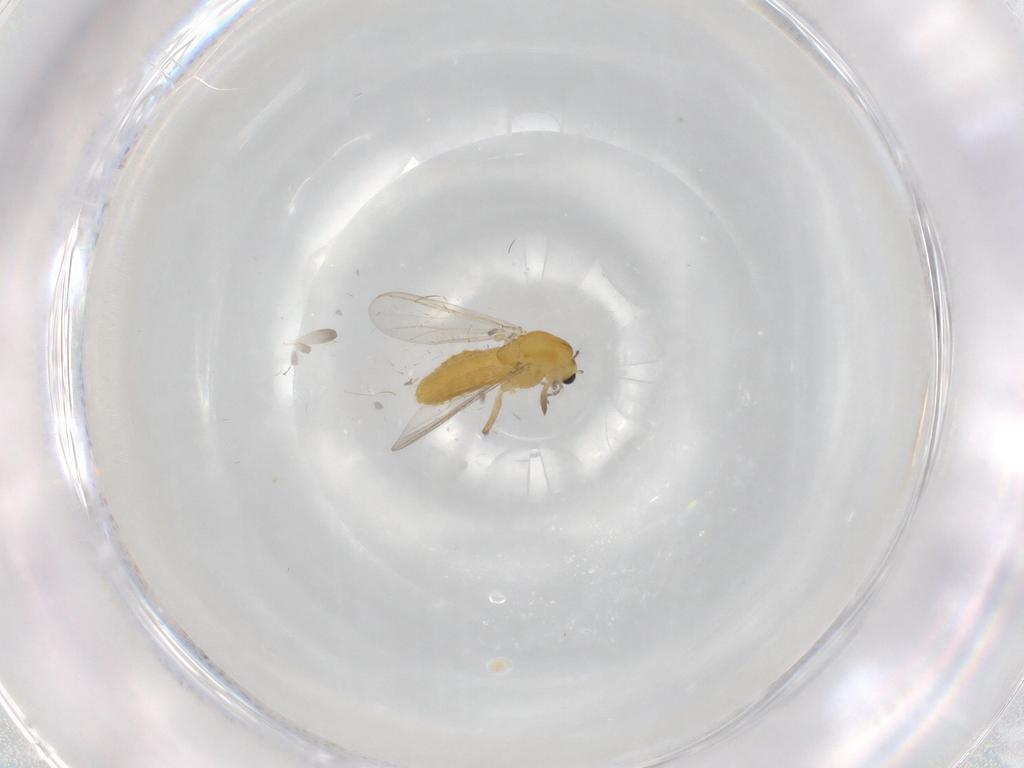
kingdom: Animalia
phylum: Arthropoda
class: Insecta
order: Diptera
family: Chironomidae
